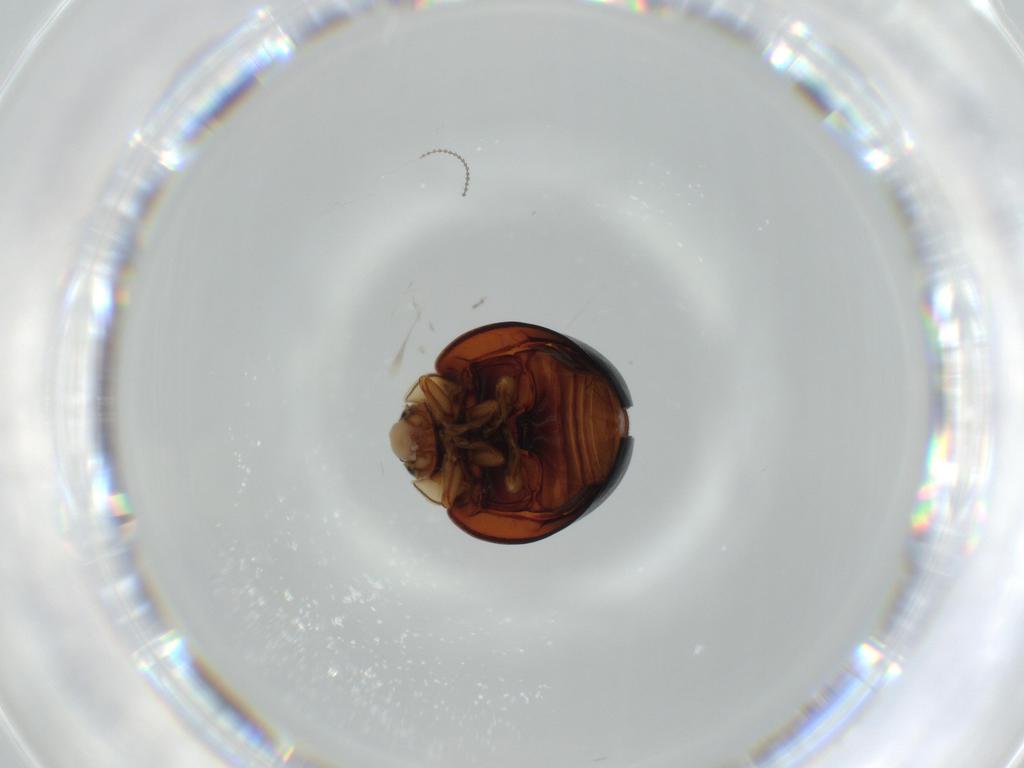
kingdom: Animalia
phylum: Arthropoda
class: Insecta
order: Coleoptera
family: Coccinellidae
